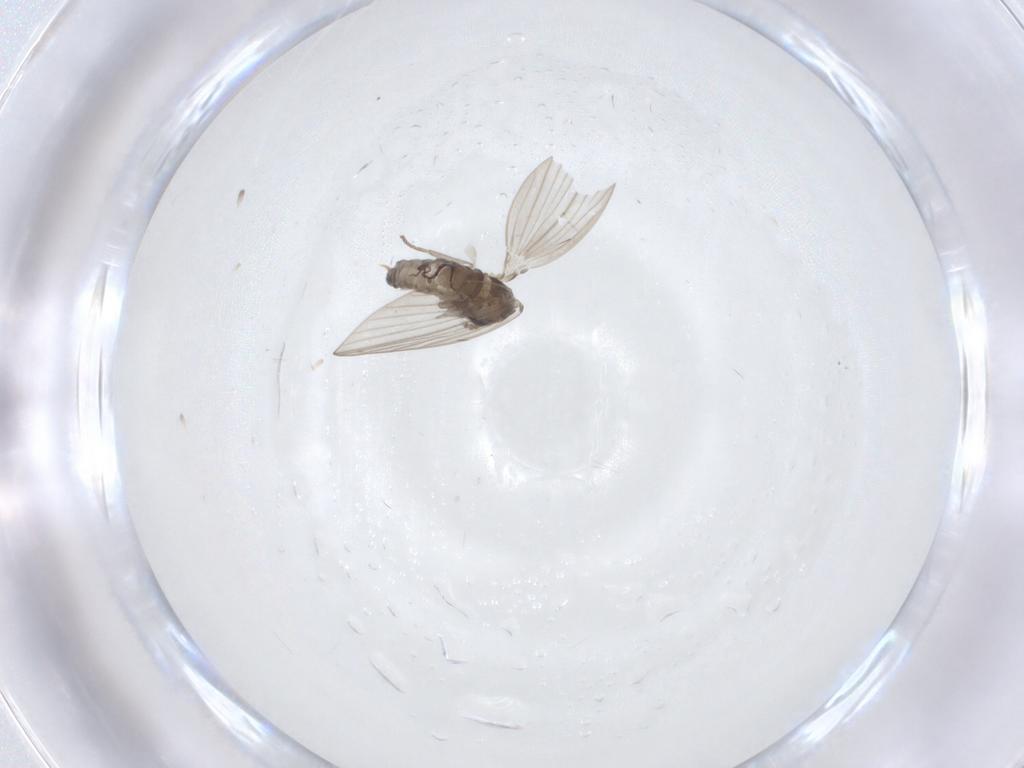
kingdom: Animalia
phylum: Arthropoda
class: Insecta
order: Diptera
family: Psychodidae
